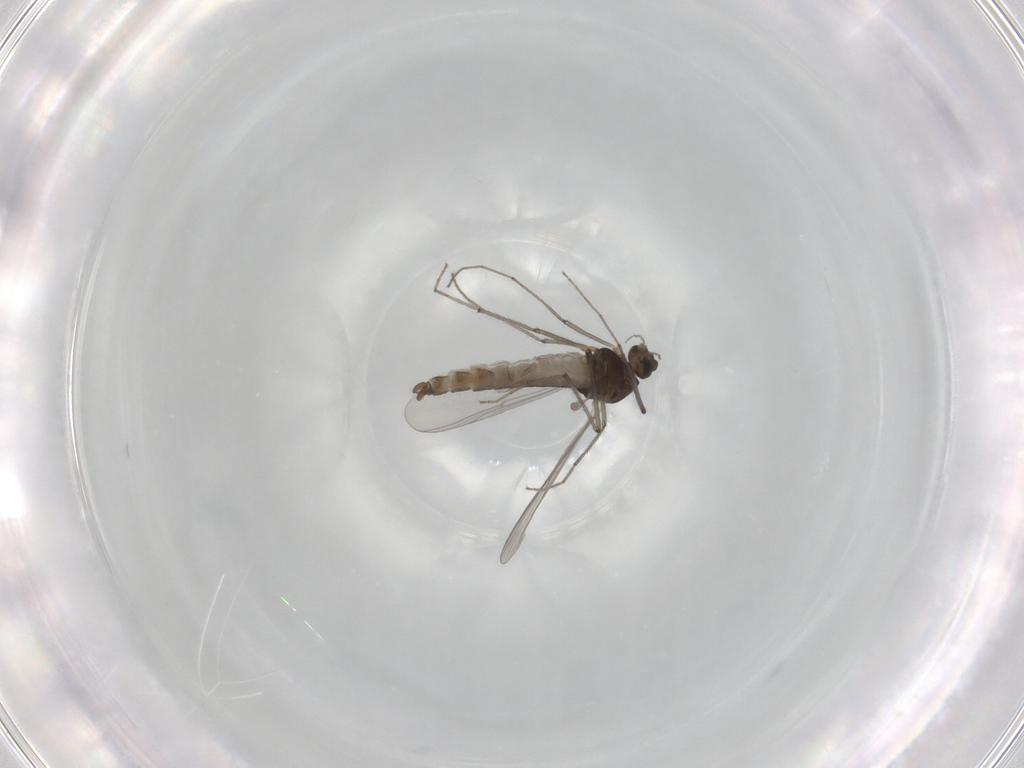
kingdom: Animalia
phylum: Arthropoda
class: Insecta
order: Diptera
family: Chironomidae
